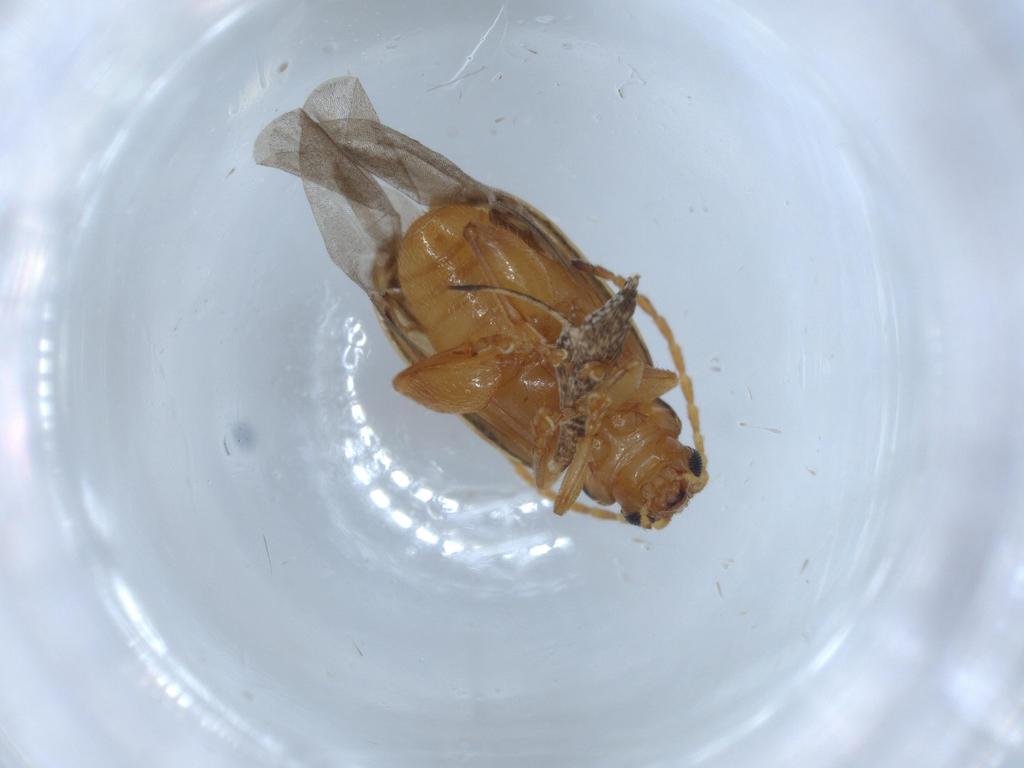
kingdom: Animalia
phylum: Arthropoda
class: Insecta
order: Coleoptera
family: Chrysomelidae
